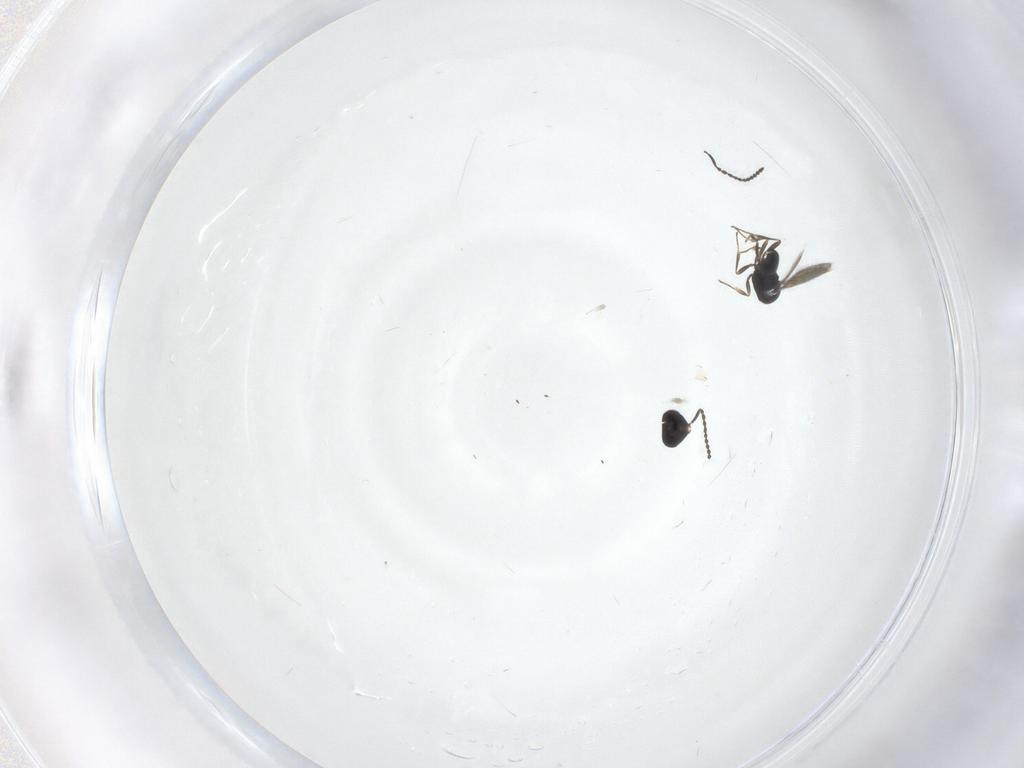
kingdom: Animalia
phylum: Arthropoda
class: Insecta
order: Hymenoptera
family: Scelionidae
